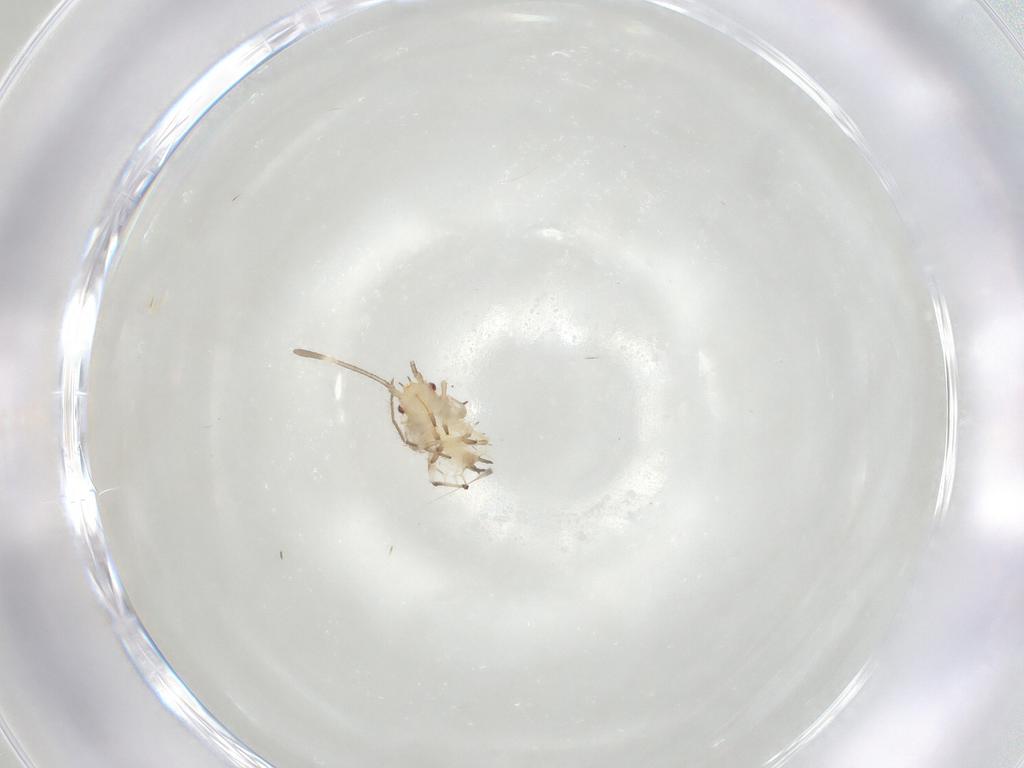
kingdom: Animalia
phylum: Arthropoda
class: Insecta
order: Hemiptera
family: Tingidae
